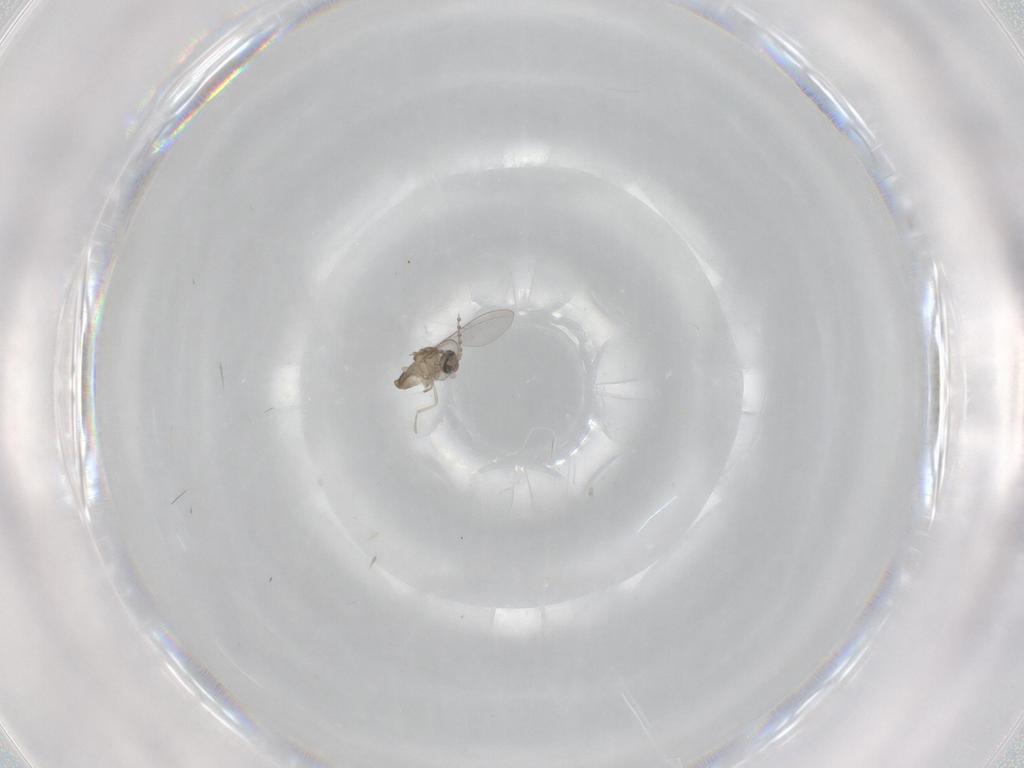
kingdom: Animalia
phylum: Arthropoda
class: Insecta
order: Diptera
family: Cecidomyiidae
